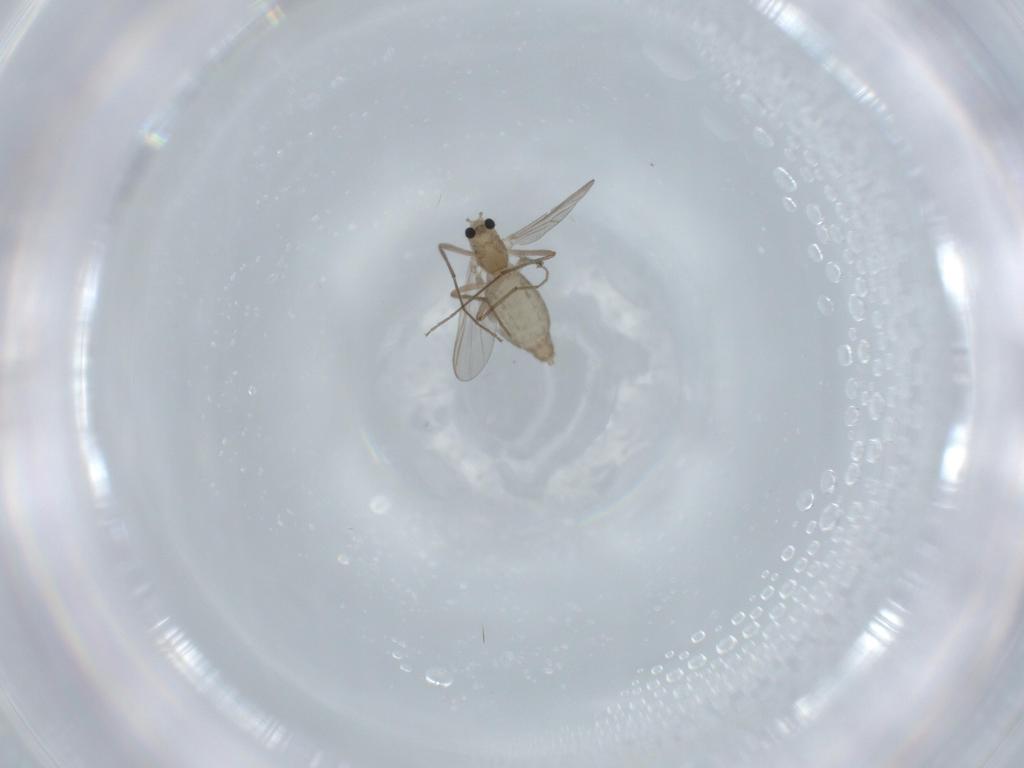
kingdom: Animalia
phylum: Arthropoda
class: Insecta
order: Diptera
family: Chironomidae
